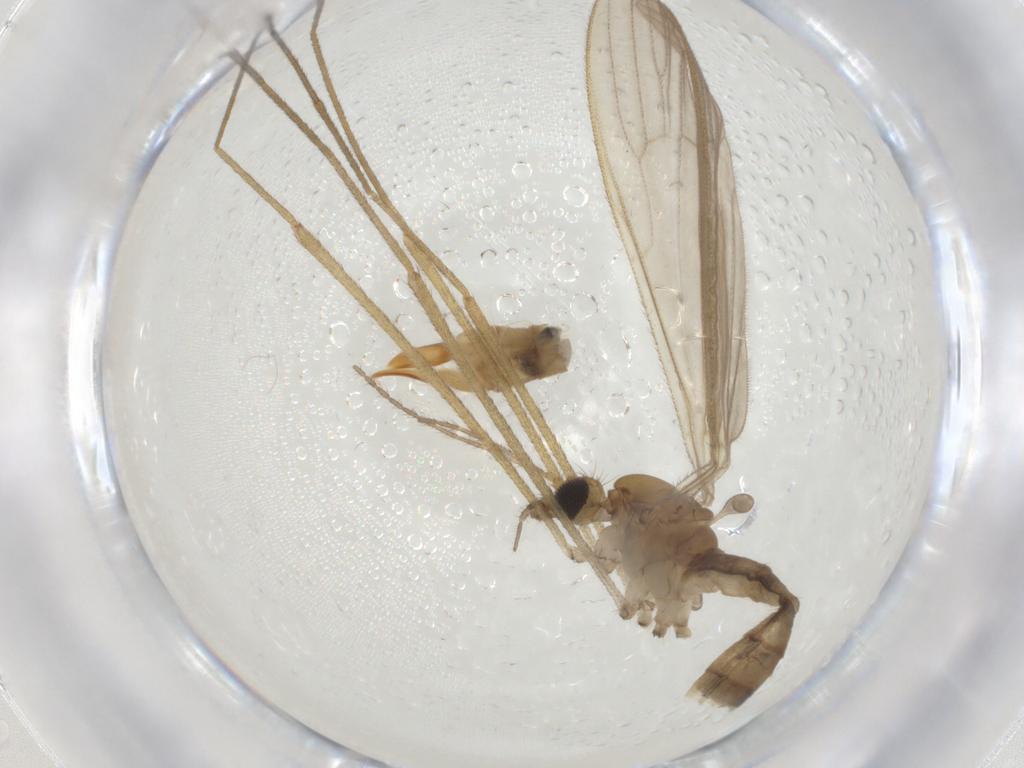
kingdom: Animalia
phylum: Arthropoda
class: Insecta
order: Diptera
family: Limoniidae
